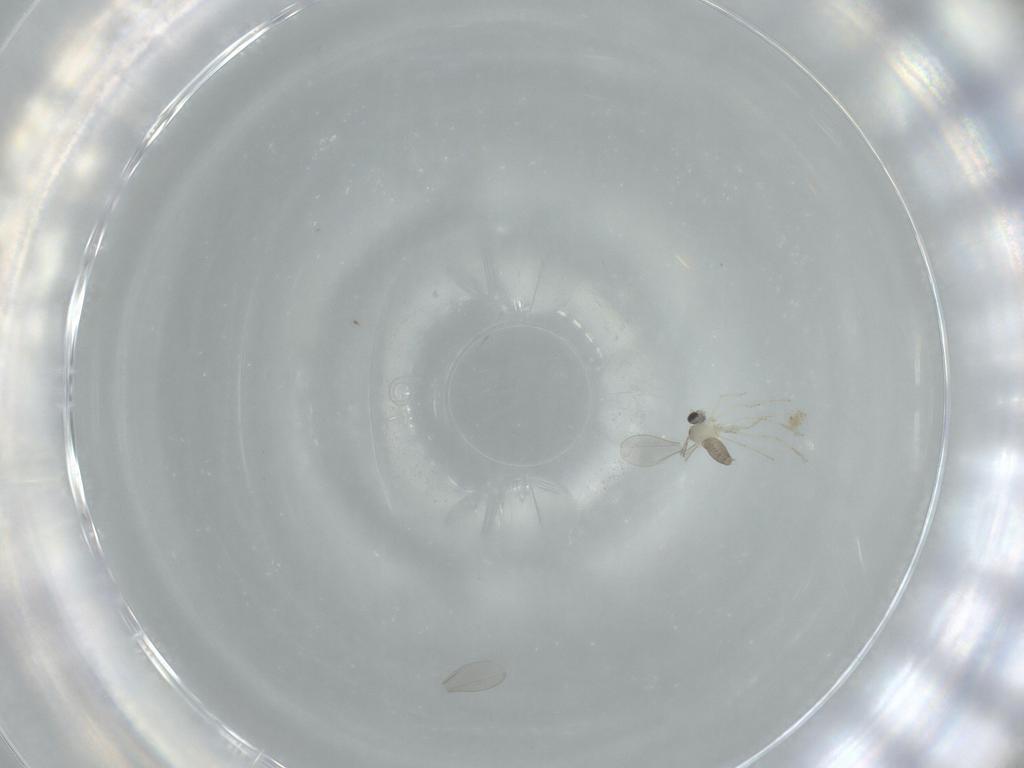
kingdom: Animalia
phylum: Arthropoda
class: Insecta
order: Diptera
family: Cecidomyiidae
